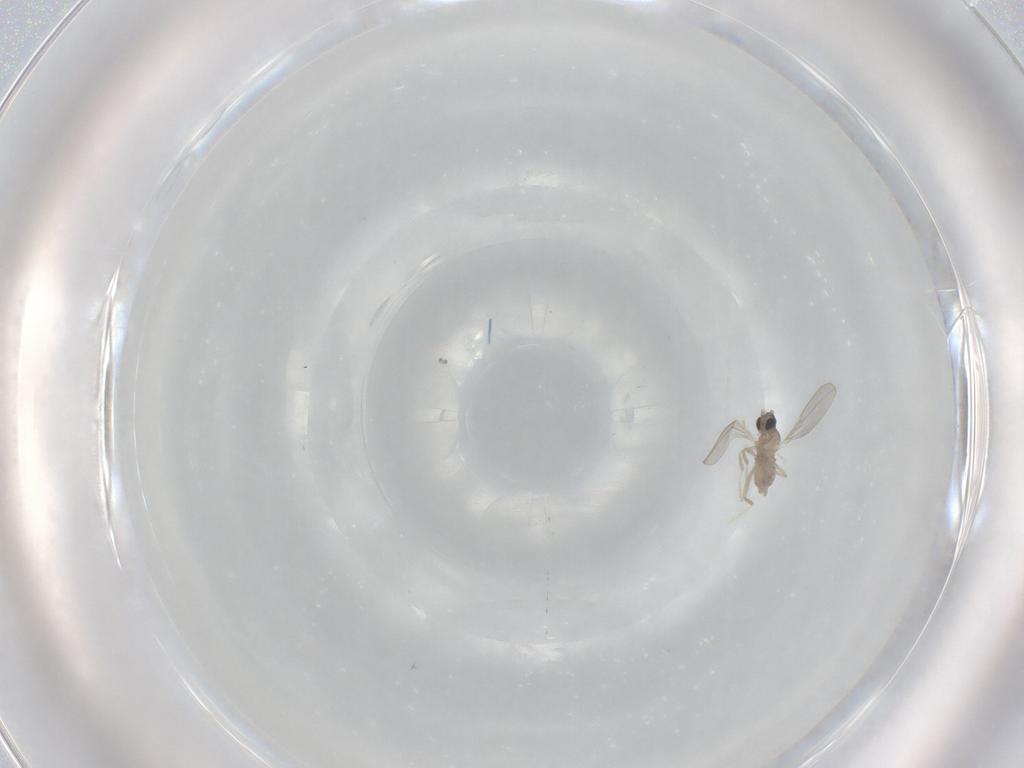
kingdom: Animalia
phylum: Arthropoda
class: Insecta
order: Diptera
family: Cecidomyiidae
